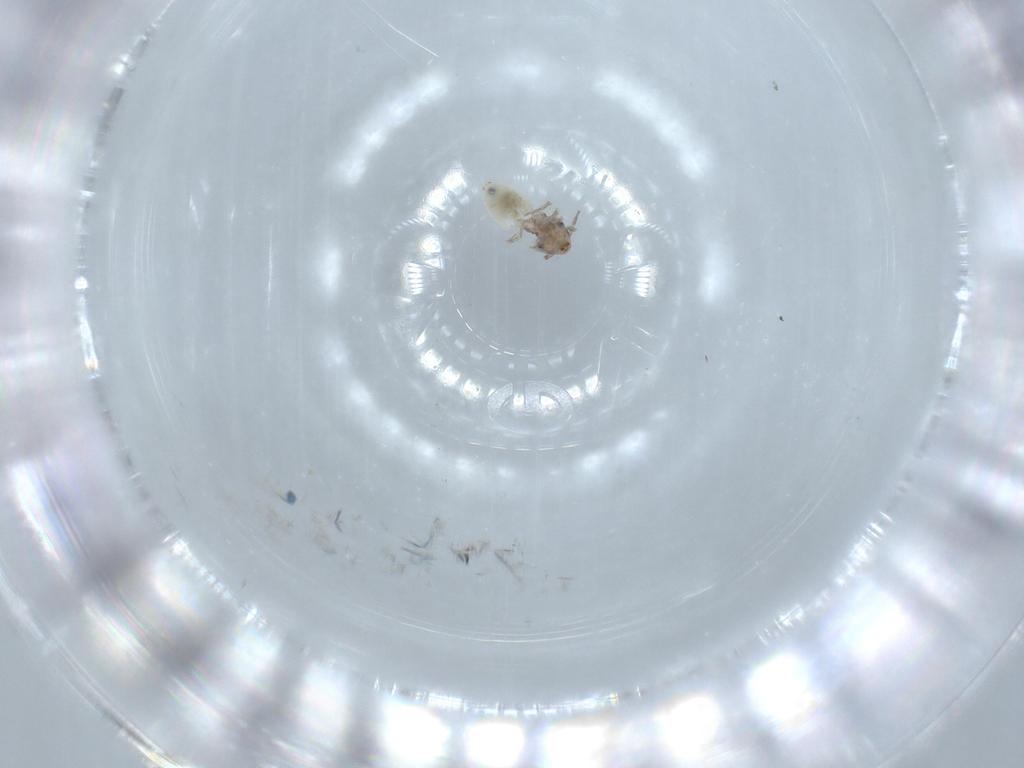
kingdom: Animalia
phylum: Arthropoda
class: Insecta
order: Psocodea
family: Lepidopsocidae
